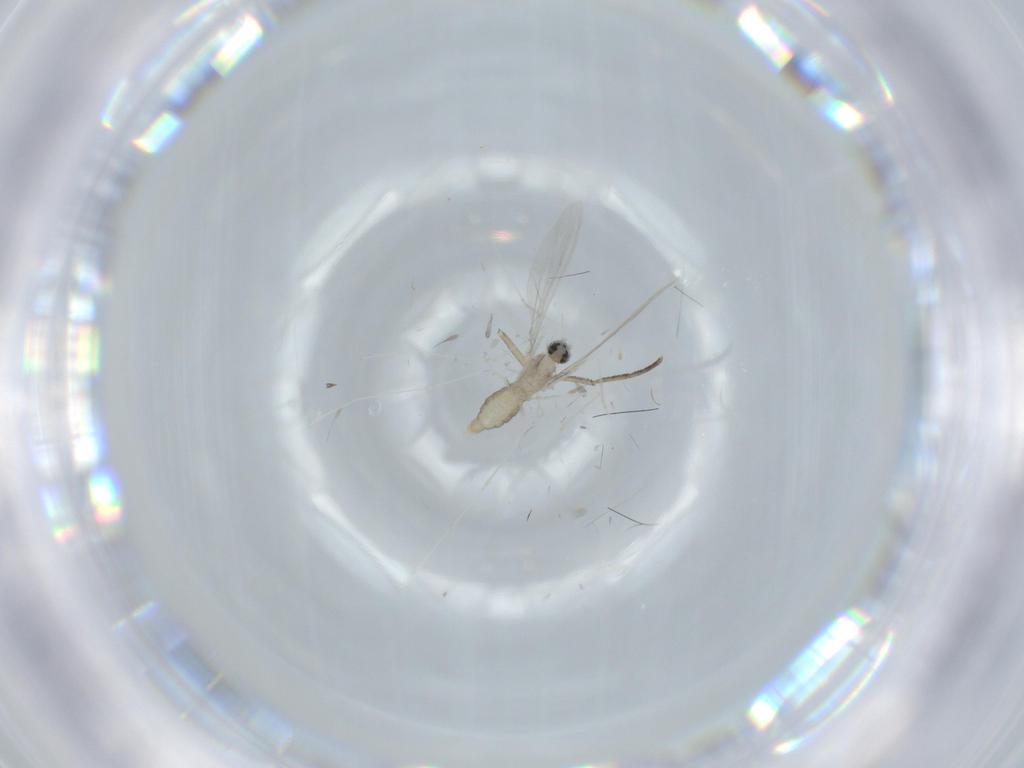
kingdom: Animalia
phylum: Arthropoda
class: Insecta
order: Diptera
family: Cecidomyiidae
